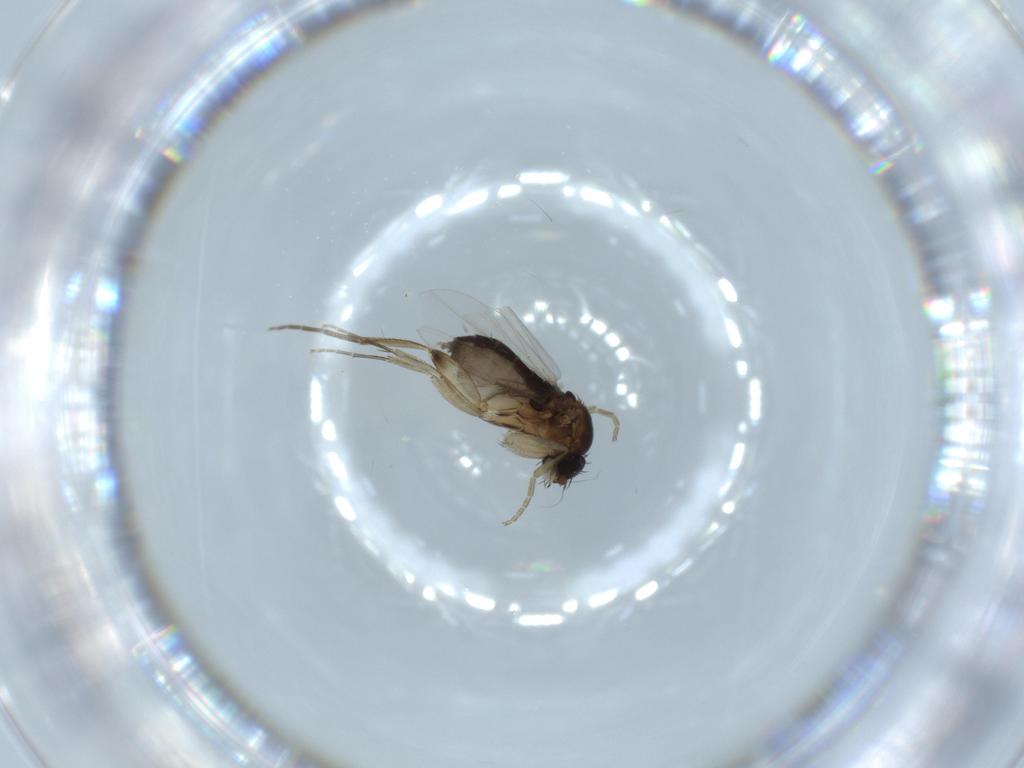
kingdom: Animalia
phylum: Arthropoda
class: Insecta
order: Diptera
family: Phoridae
